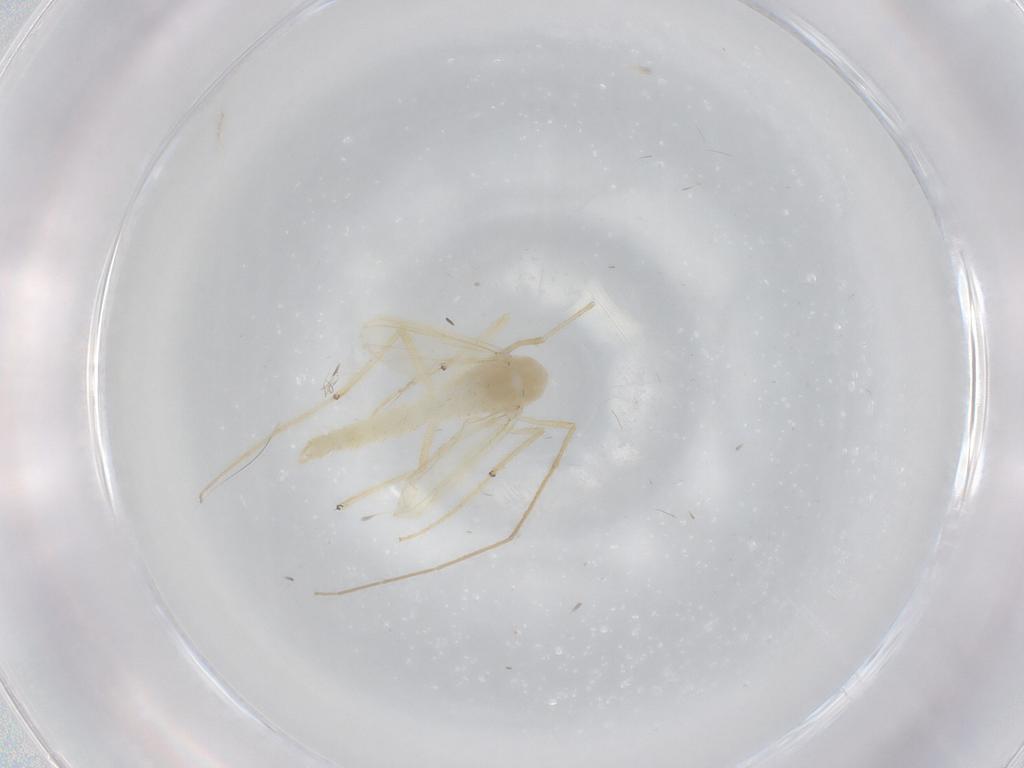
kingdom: Animalia
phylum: Arthropoda
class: Insecta
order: Diptera
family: Chironomidae
